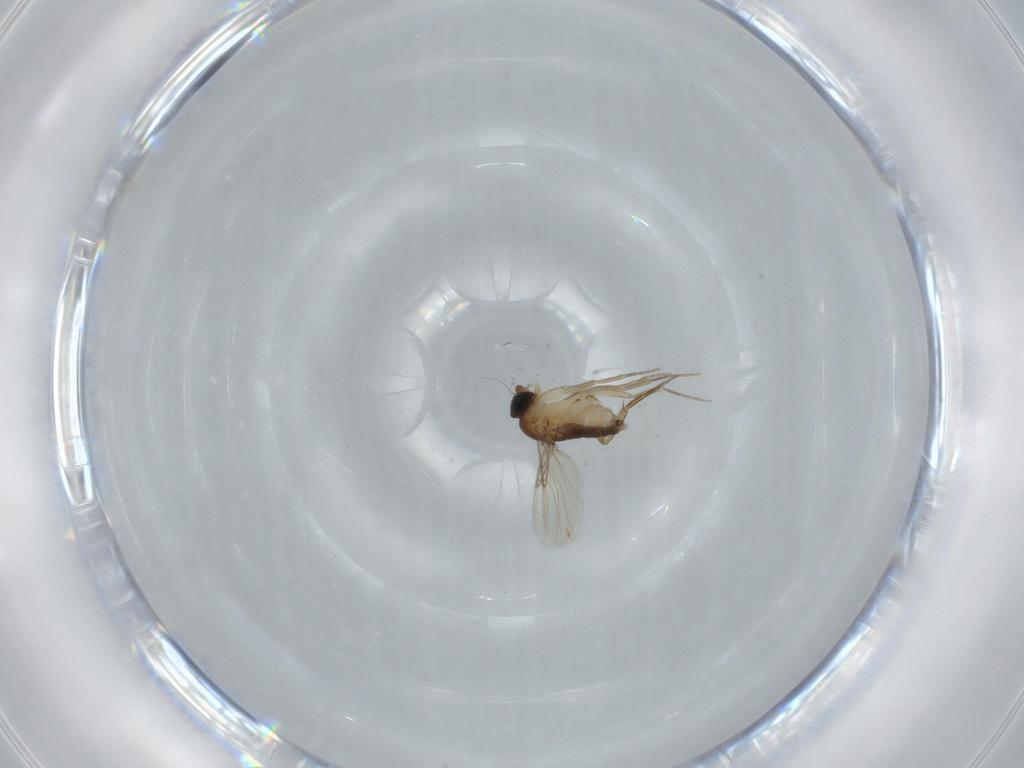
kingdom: Animalia
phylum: Arthropoda
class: Insecta
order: Diptera
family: Phoridae
